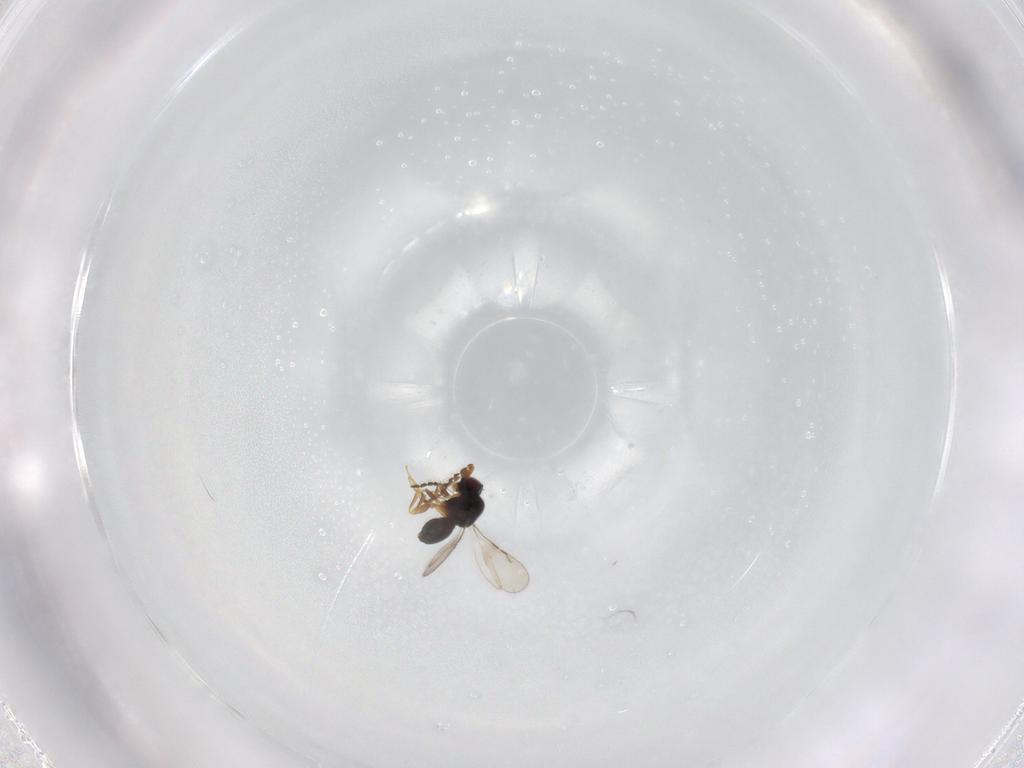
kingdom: Animalia
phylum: Arthropoda
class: Insecta
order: Hymenoptera
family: Ceraphronidae
